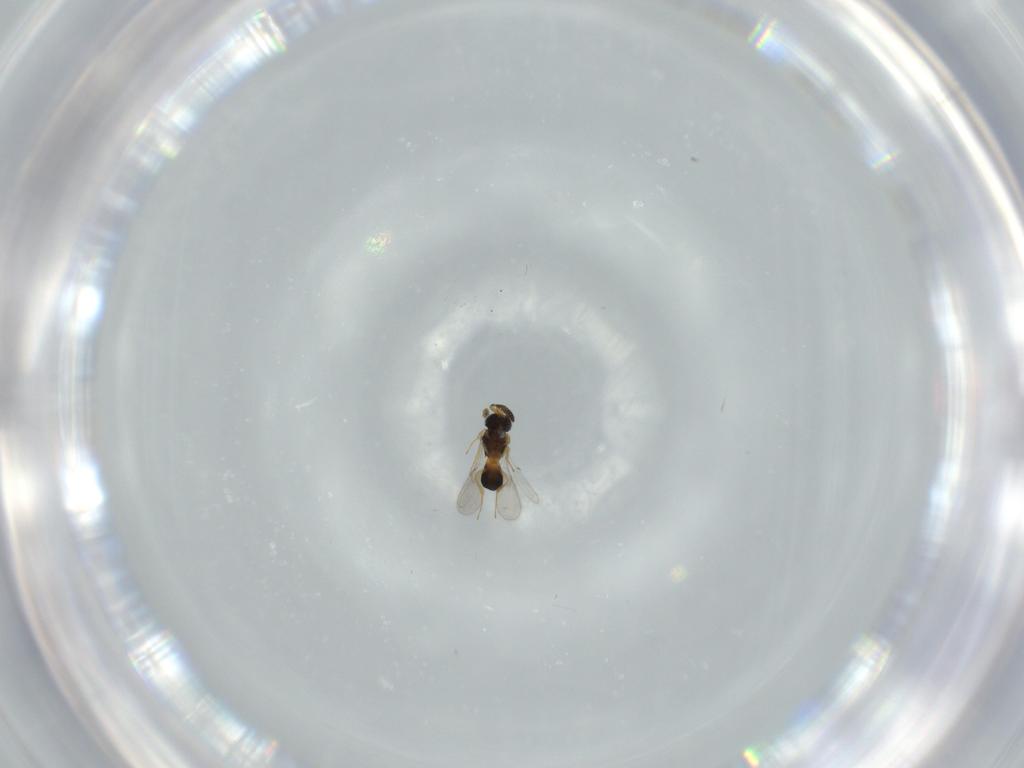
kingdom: Animalia
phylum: Arthropoda
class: Insecta
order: Hymenoptera
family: Scelionidae
